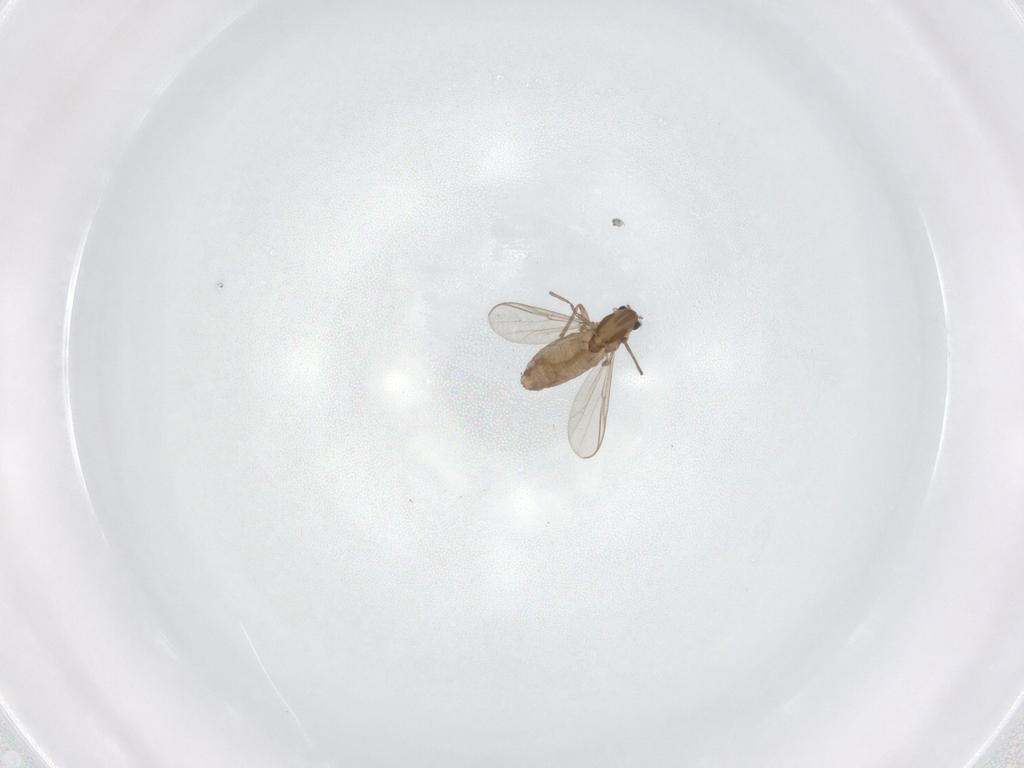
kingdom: Animalia
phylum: Arthropoda
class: Insecta
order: Diptera
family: Chironomidae
